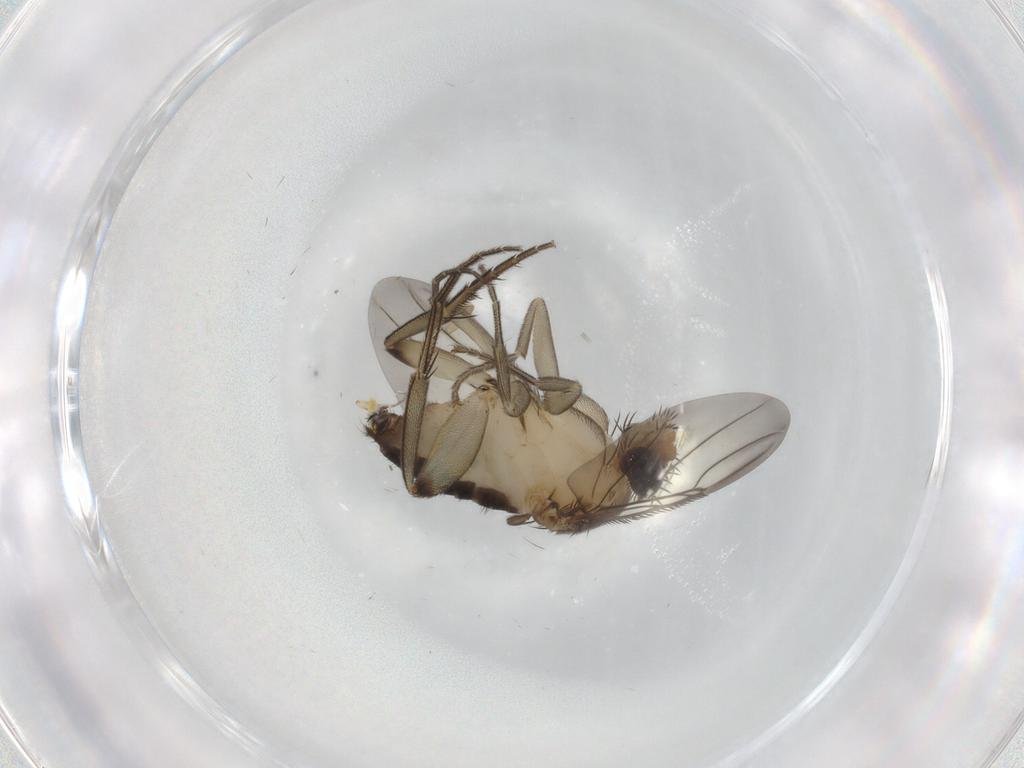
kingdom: Animalia
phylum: Arthropoda
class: Insecta
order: Diptera
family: Phoridae
